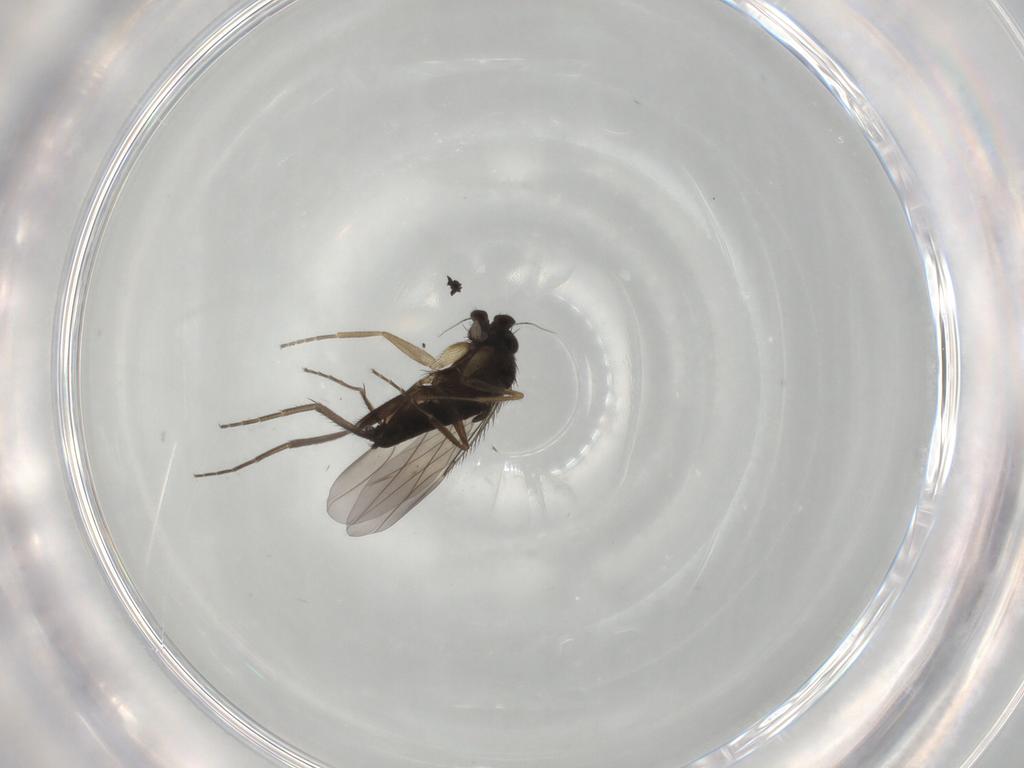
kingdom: Animalia
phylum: Arthropoda
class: Insecta
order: Diptera
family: Phoridae
